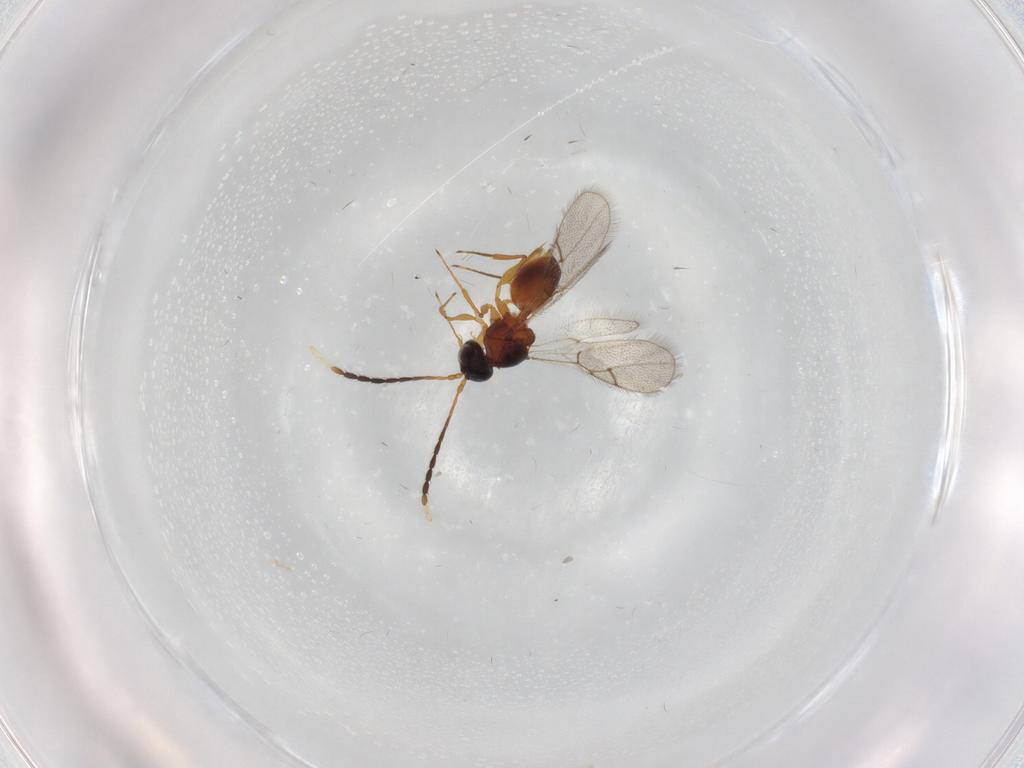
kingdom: Animalia
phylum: Arthropoda
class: Insecta
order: Hymenoptera
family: Figitidae
